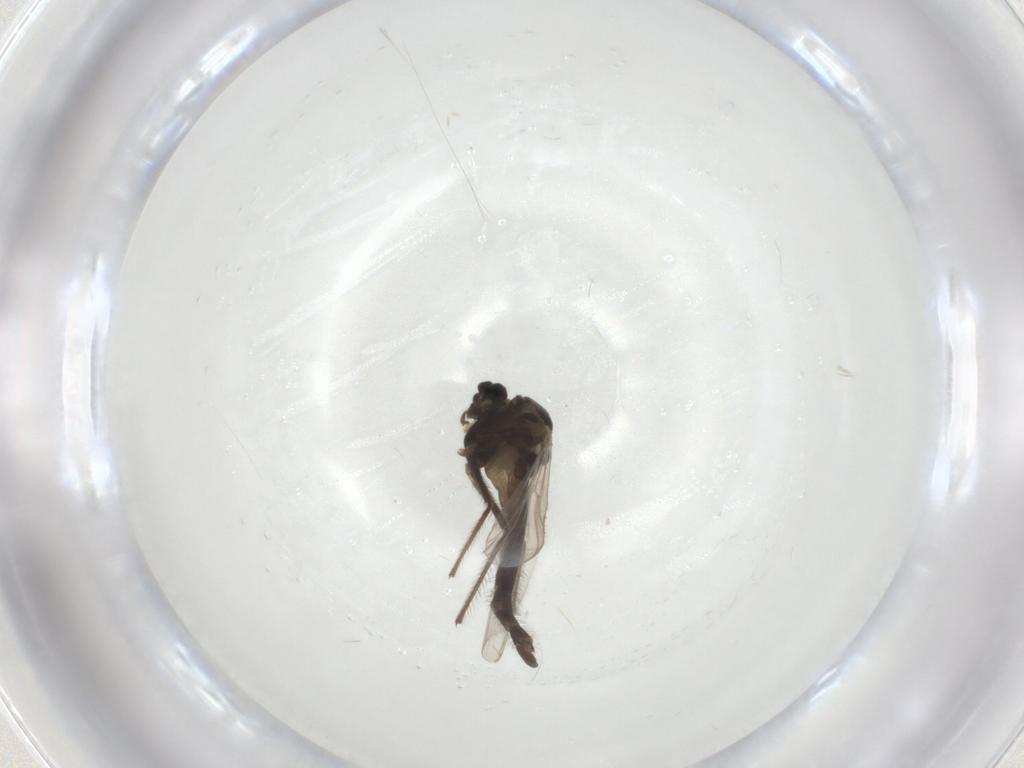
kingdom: Animalia
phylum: Arthropoda
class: Insecta
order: Diptera
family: Chironomidae
